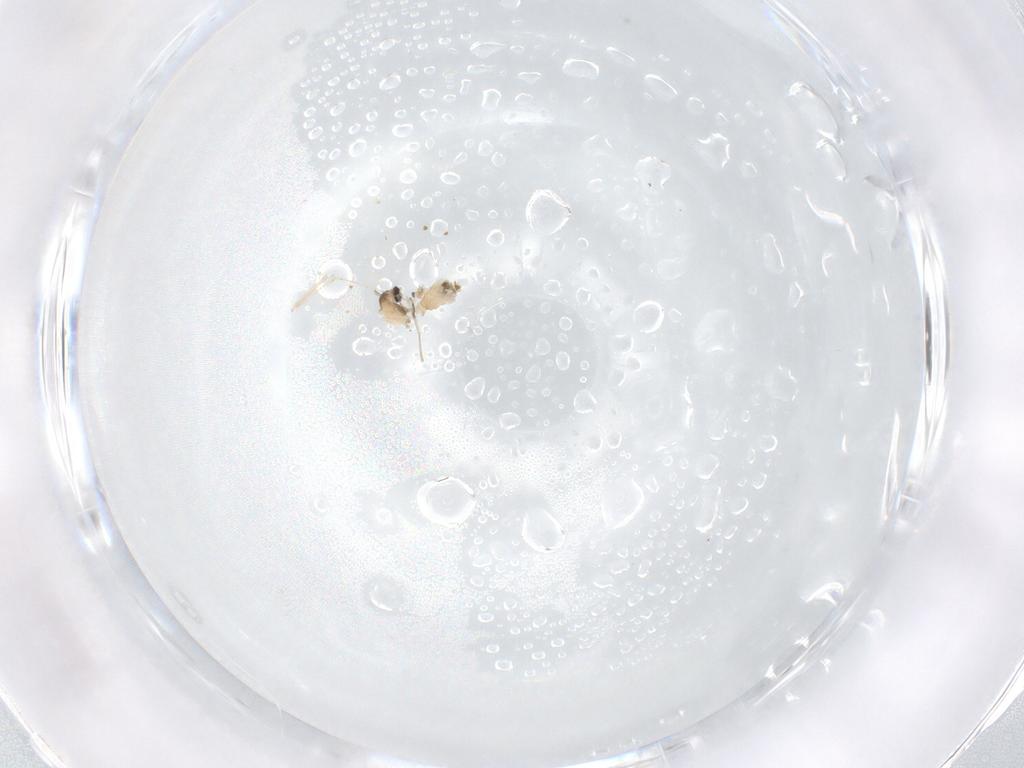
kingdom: Animalia
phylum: Arthropoda
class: Insecta
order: Diptera
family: Cecidomyiidae
